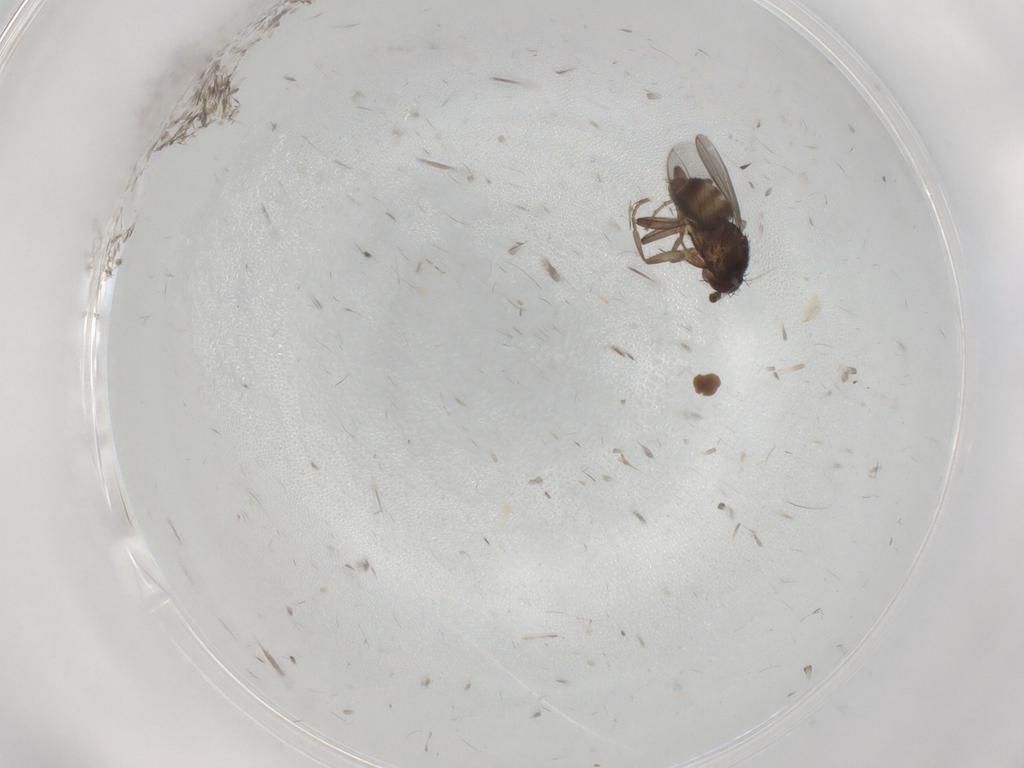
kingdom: Animalia
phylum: Arthropoda
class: Insecta
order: Diptera
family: Sphaeroceridae
